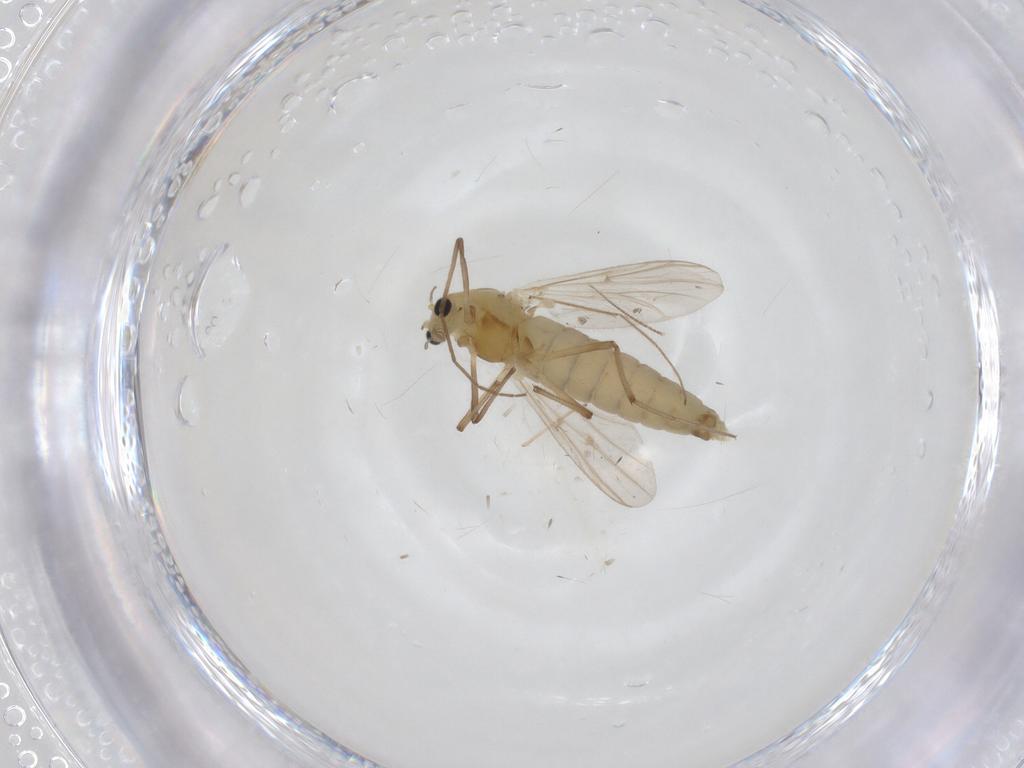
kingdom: Animalia
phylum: Arthropoda
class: Insecta
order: Diptera
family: Chironomidae
